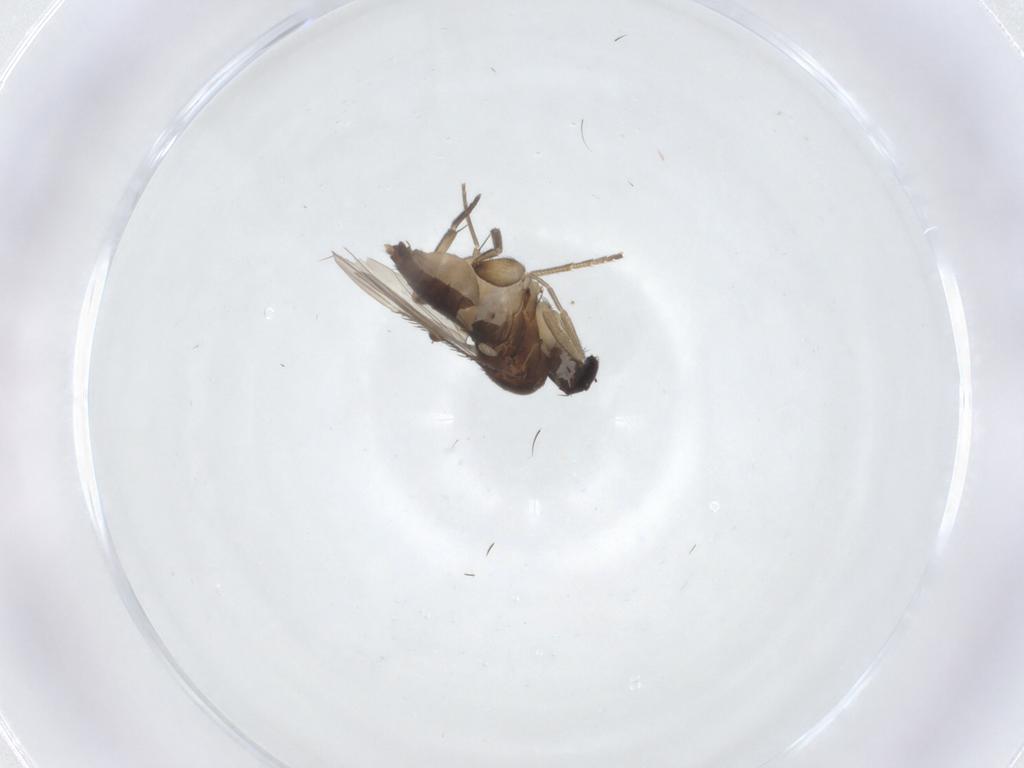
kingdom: Animalia
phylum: Arthropoda
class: Insecta
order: Diptera
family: Phoridae
